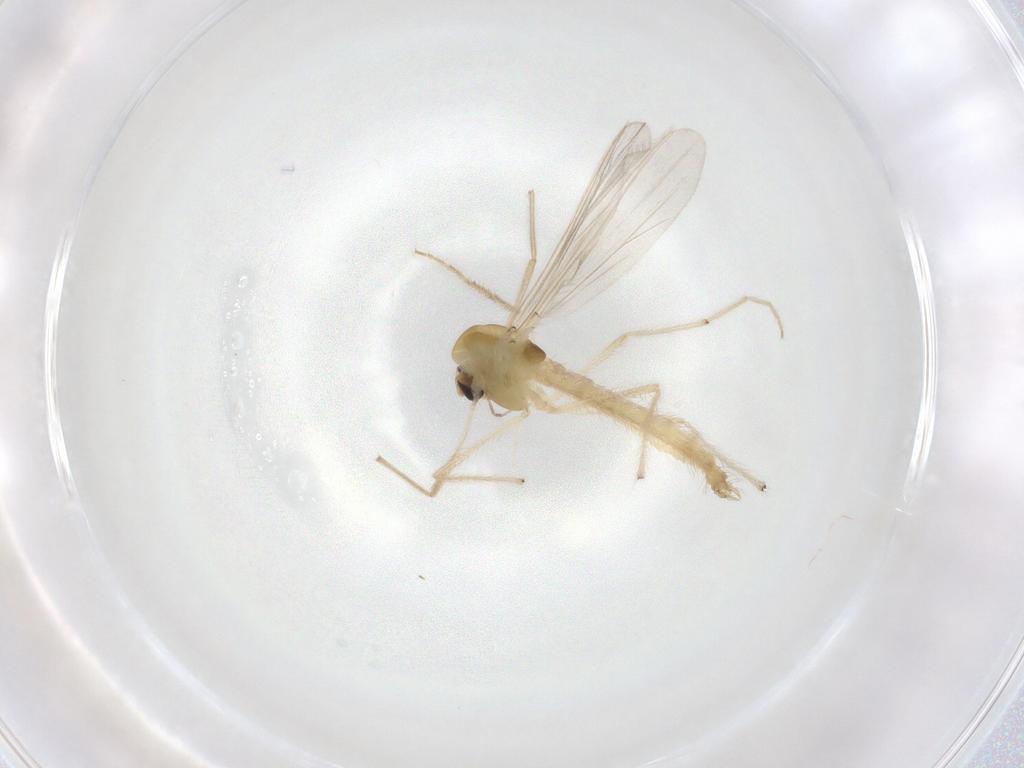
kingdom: Animalia
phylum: Arthropoda
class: Insecta
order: Diptera
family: Chironomidae
